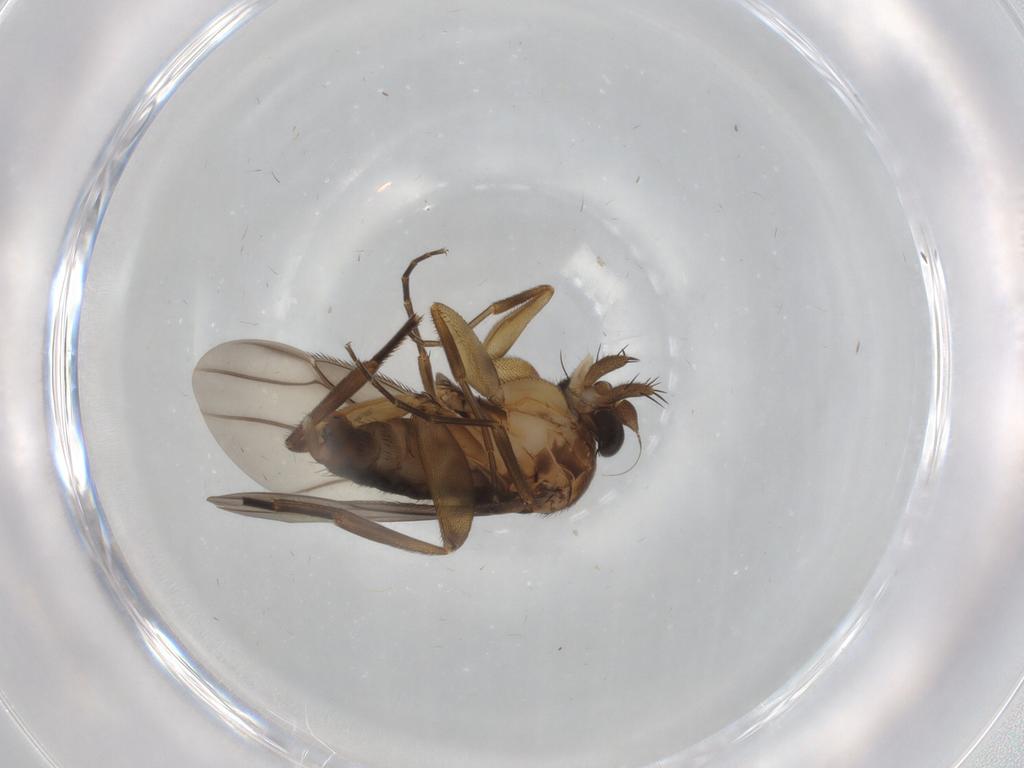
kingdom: Animalia
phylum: Arthropoda
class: Insecta
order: Diptera
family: Phoridae
